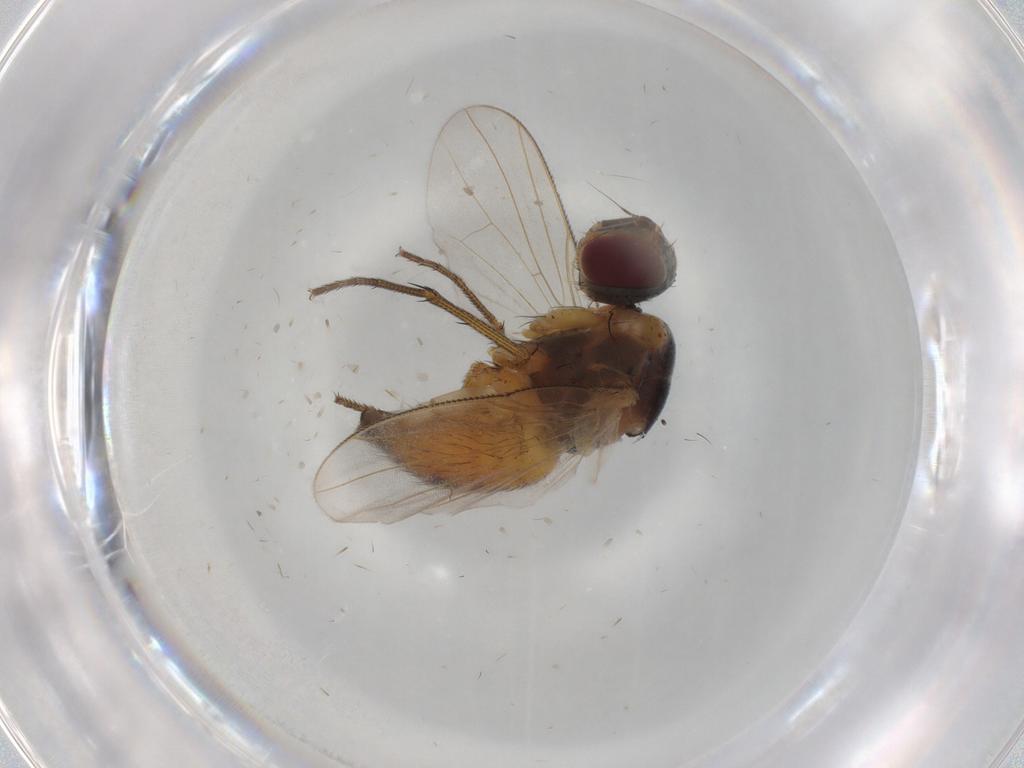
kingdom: Animalia
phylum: Arthropoda
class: Insecta
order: Diptera
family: Muscidae
